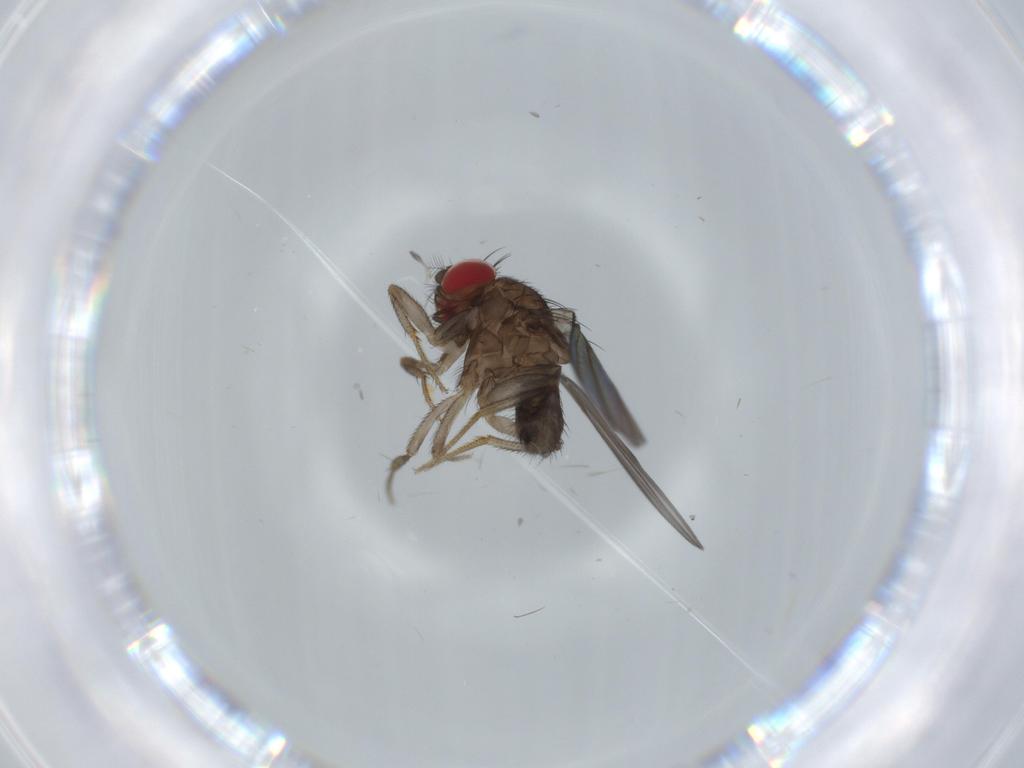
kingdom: Animalia
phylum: Arthropoda
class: Insecta
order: Diptera
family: Drosophilidae
